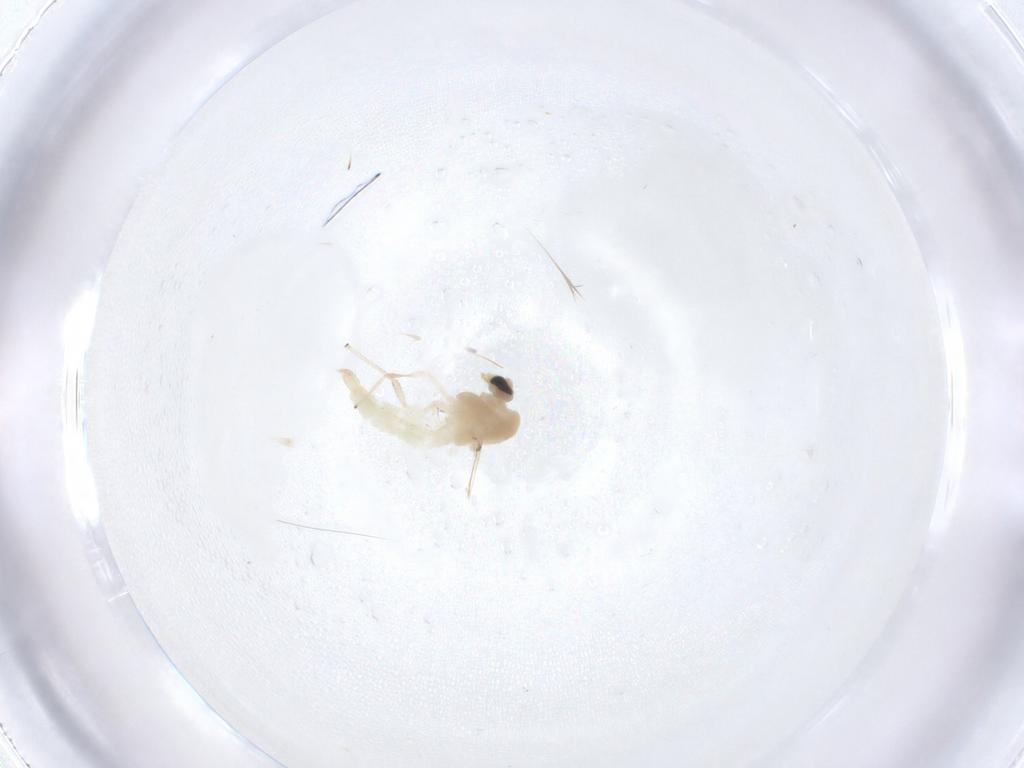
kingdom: Animalia
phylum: Arthropoda
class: Insecta
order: Diptera
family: Chironomidae
